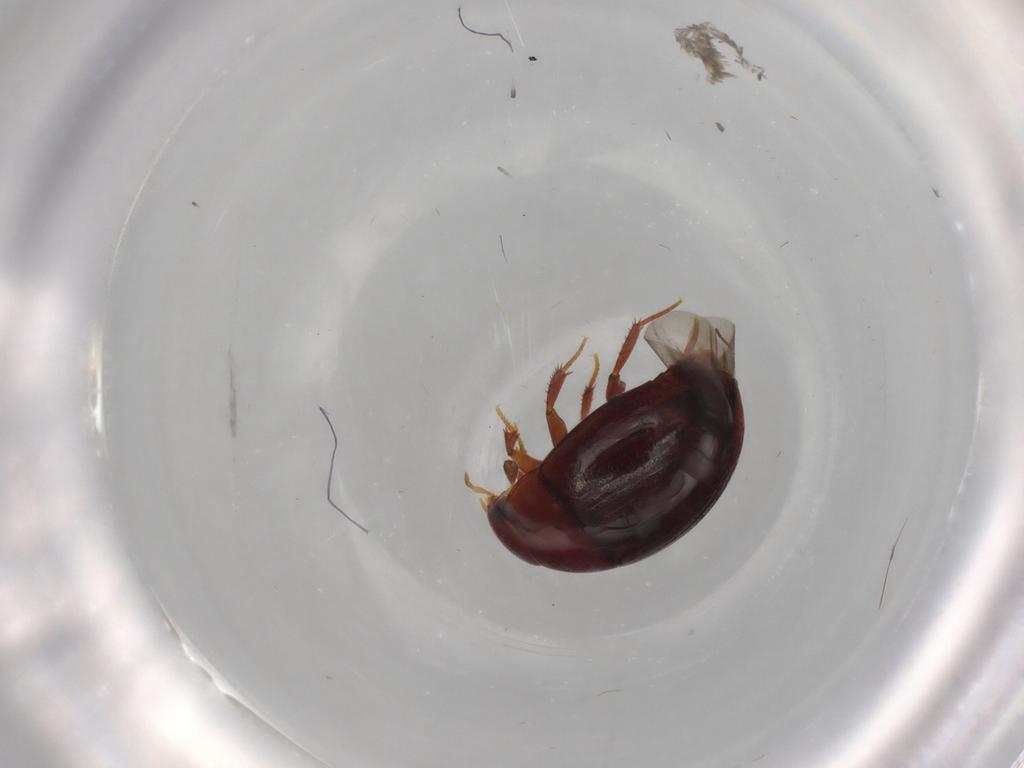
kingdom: Animalia
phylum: Arthropoda
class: Insecta
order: Coleoptera
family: Hydrophilidae
